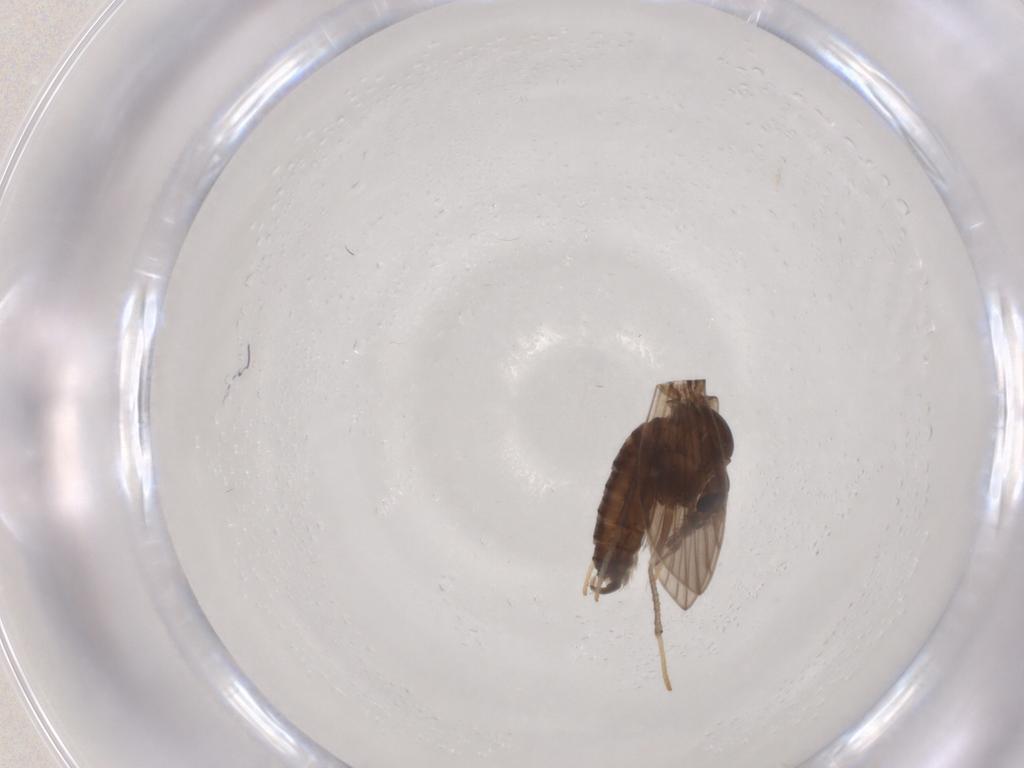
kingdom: Animalia
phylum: Arthropoda
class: Insecta
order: Diptera
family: Psychodidae
